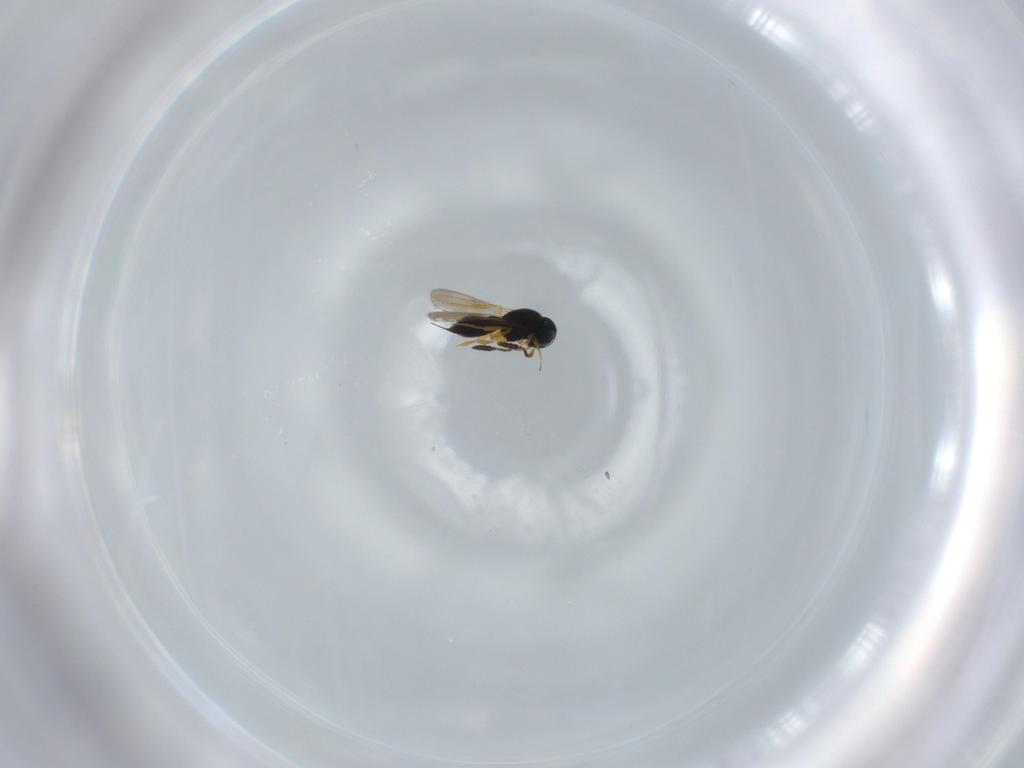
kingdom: Animalia
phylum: Arthropoda
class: Insecta
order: Hymenoptera
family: Scelionidae
